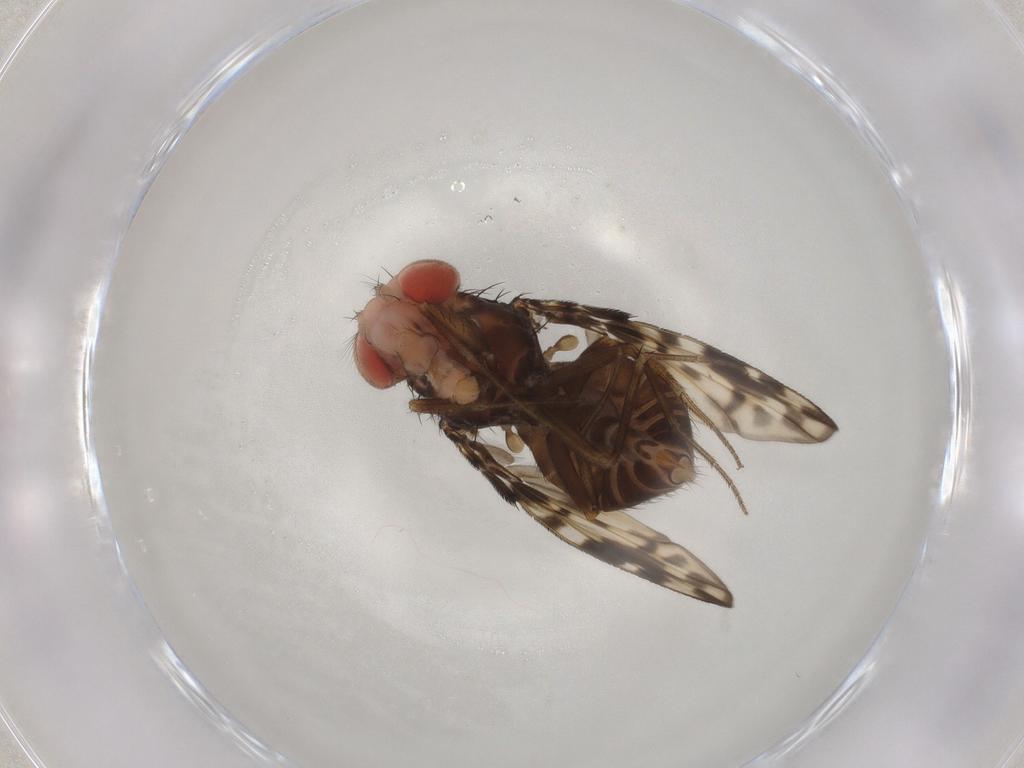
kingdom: Animalia
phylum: Arthropoda
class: Insecta
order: Diptera
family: Drosophilidae
